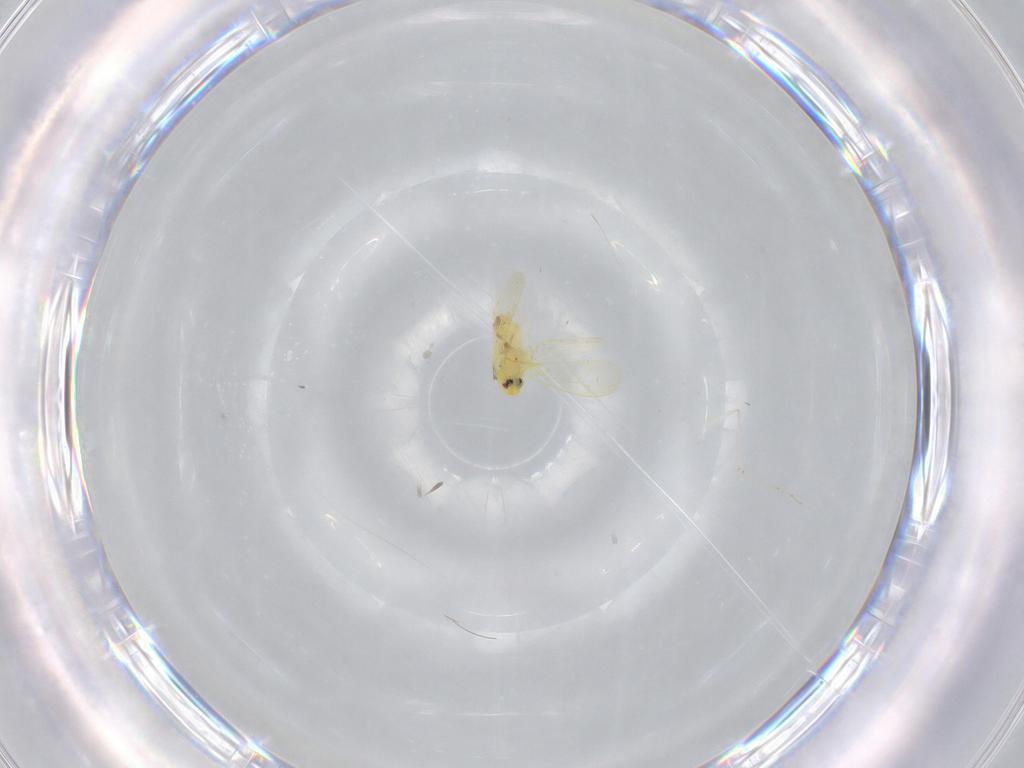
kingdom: Animalia
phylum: Arthropoda
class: Insecta
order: Hemiptera
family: Aleyrodidae
